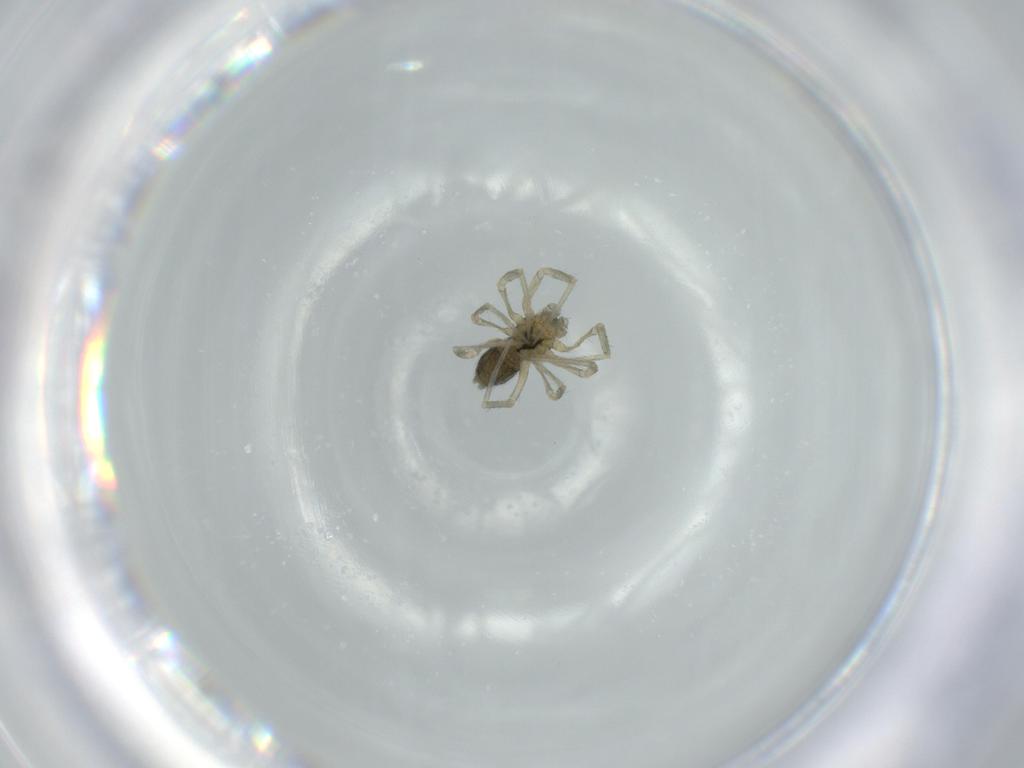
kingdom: Animalia
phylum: Arthropoda
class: Arachnida
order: Araneae
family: Linyphiidae
